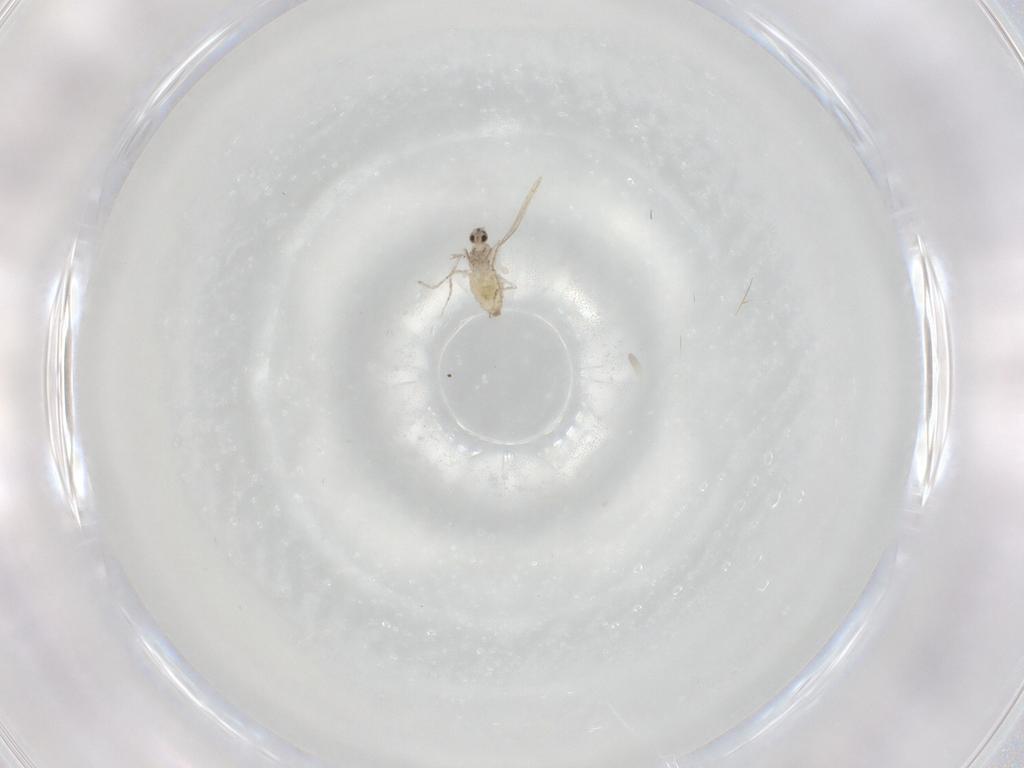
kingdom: Animalia
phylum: Arthropoda
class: Insecta
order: Diptera
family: Cecidomyiidae
